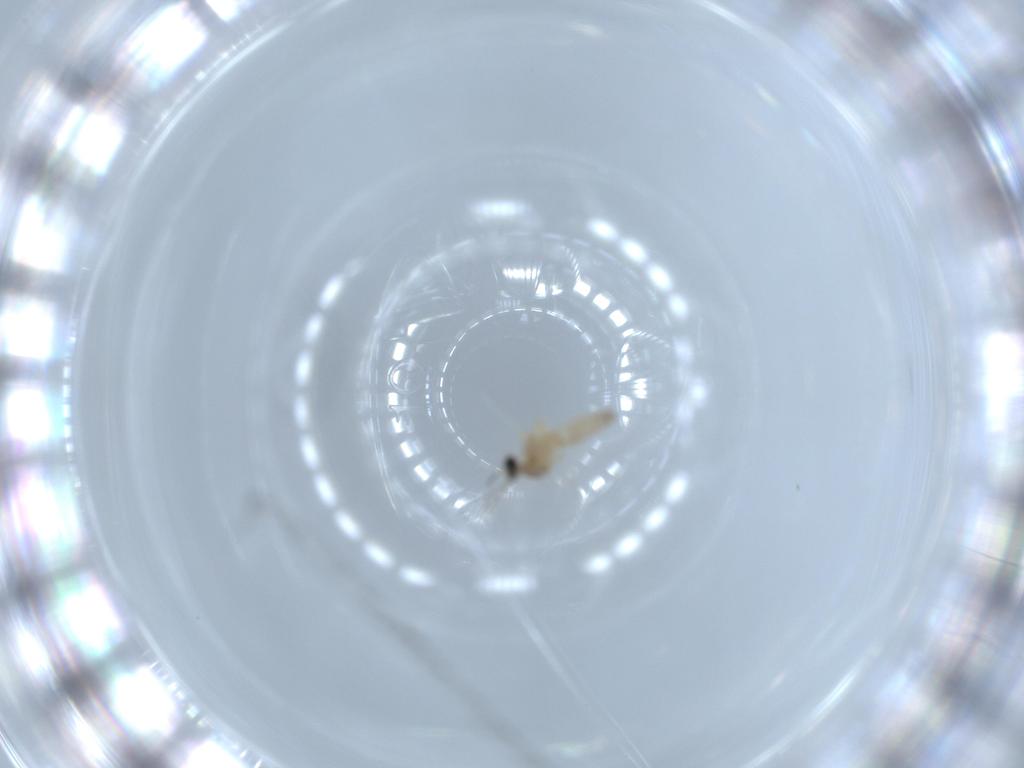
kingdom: Animalia
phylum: Arthropoda
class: Insecta
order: Diptera
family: Cecidomyiidae
